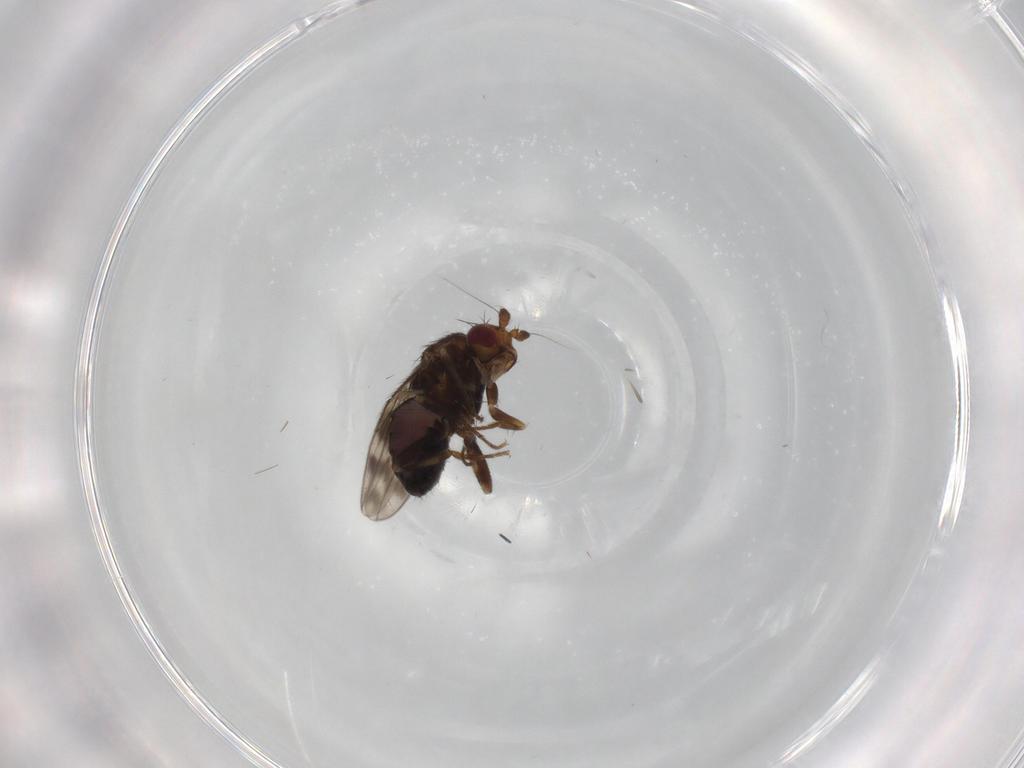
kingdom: Animalia
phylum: Arthropoda
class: Insecta
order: Diptera
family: Sphaeroceridae
